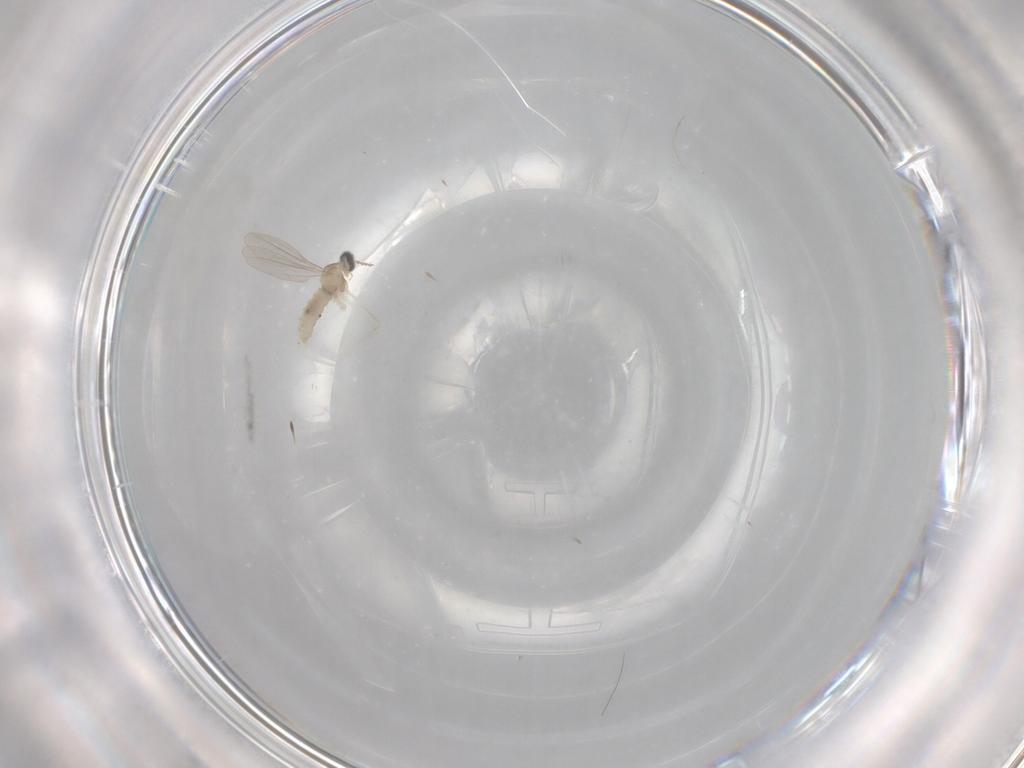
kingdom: Animalia
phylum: Arthropoda
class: Insecta
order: Diptera
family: Cecidomyiidae
